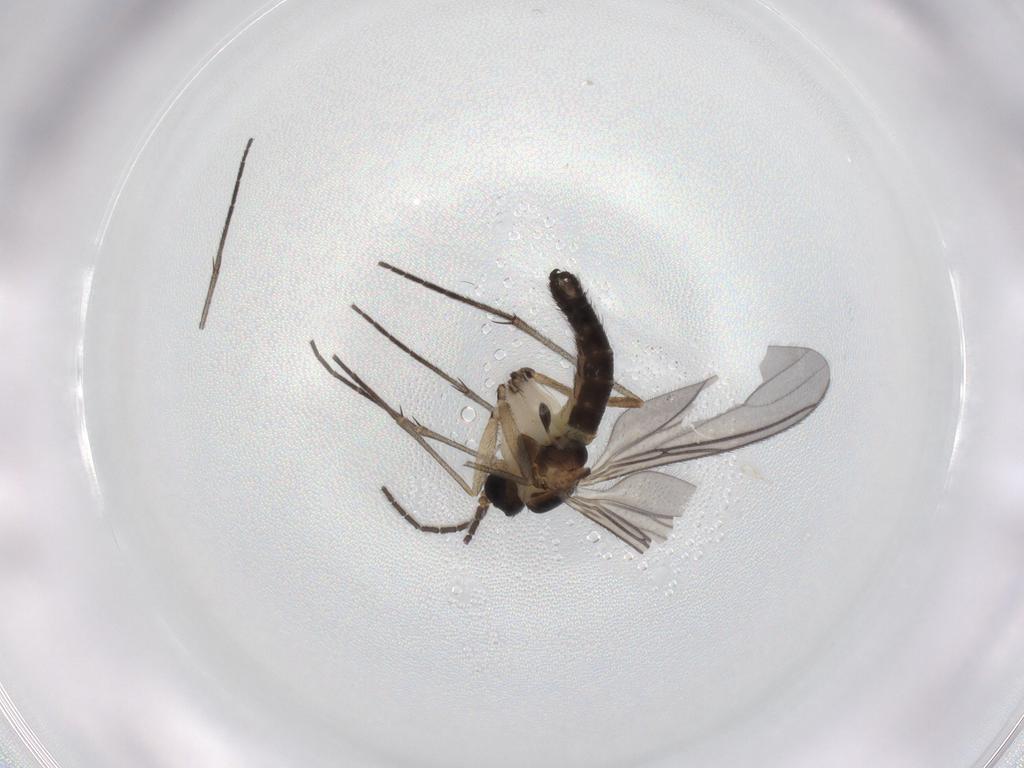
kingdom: Animalia
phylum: Arthropoda
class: Insecta
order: Diptera
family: Sciaridae
